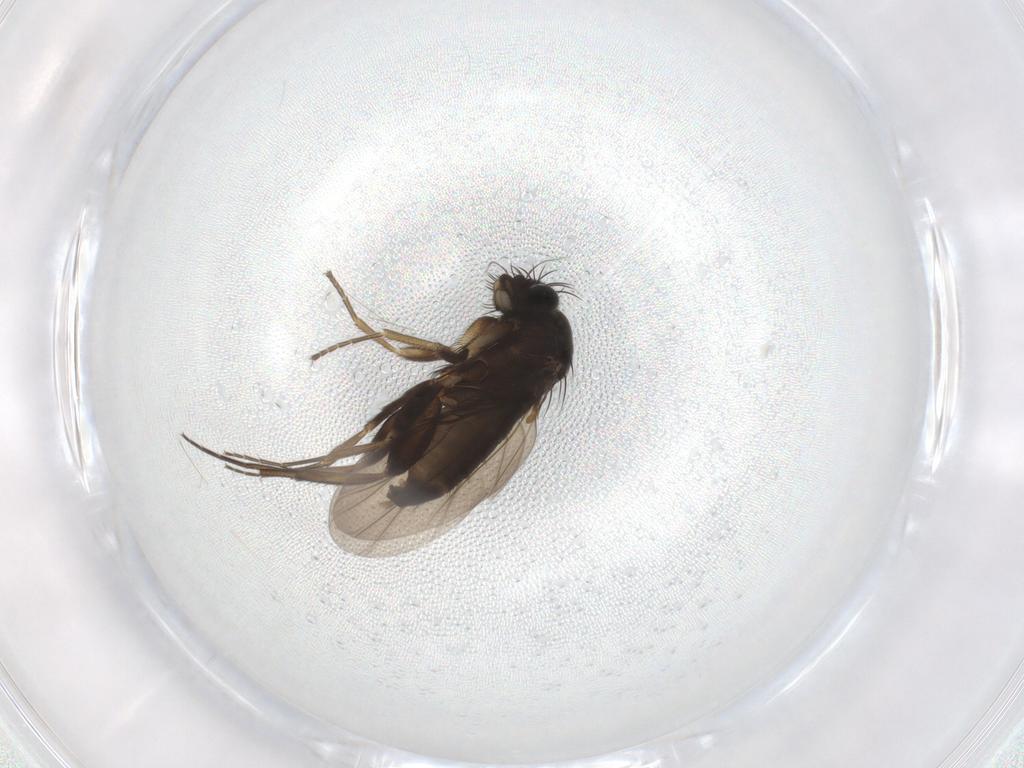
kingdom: Animalia
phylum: Arthropoda
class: Insecta
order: Diptera
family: Phoridae
